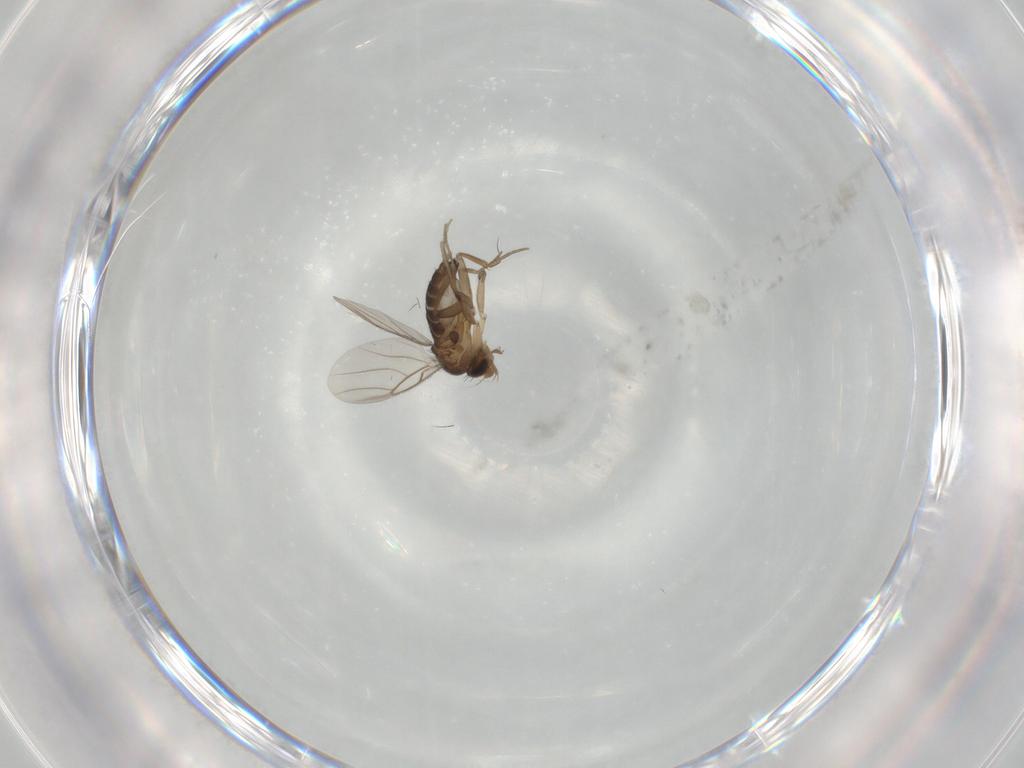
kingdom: Animalia
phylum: Arthropoda
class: Insecta
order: Diptera
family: Phoridae
